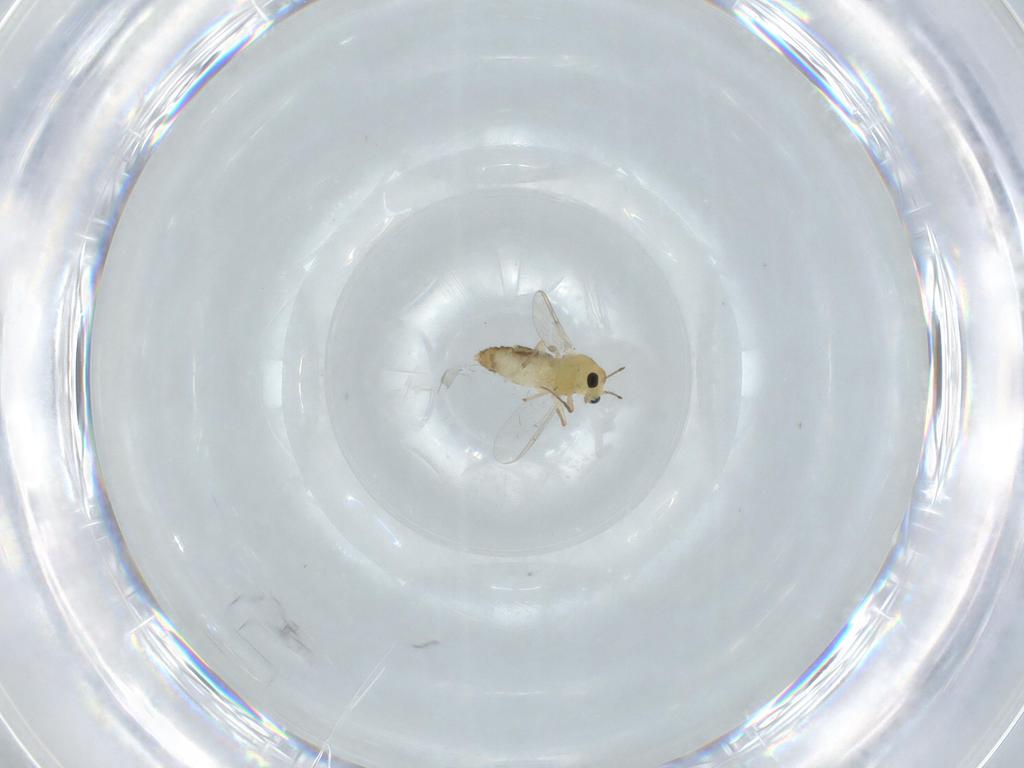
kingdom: Animalia
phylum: Arthropoda
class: Insecta
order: Diptera
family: Chironomidae
